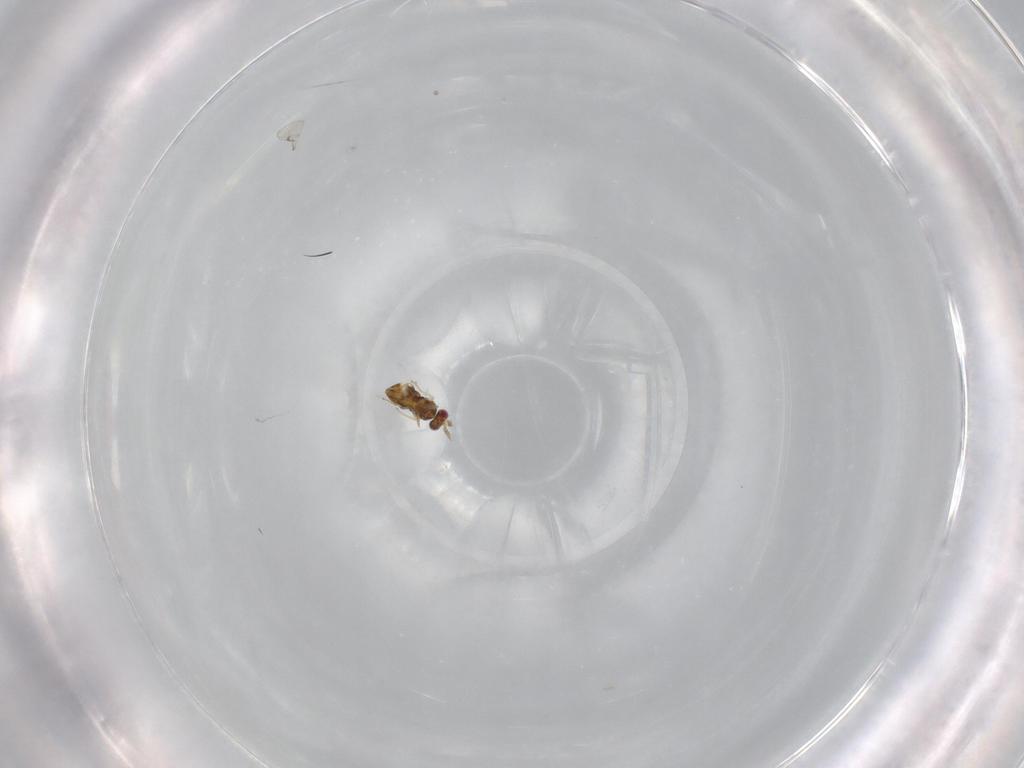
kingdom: Animalia
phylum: Arthropoda
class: Insecta
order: Hymenoptera
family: Trichogrammatidae
